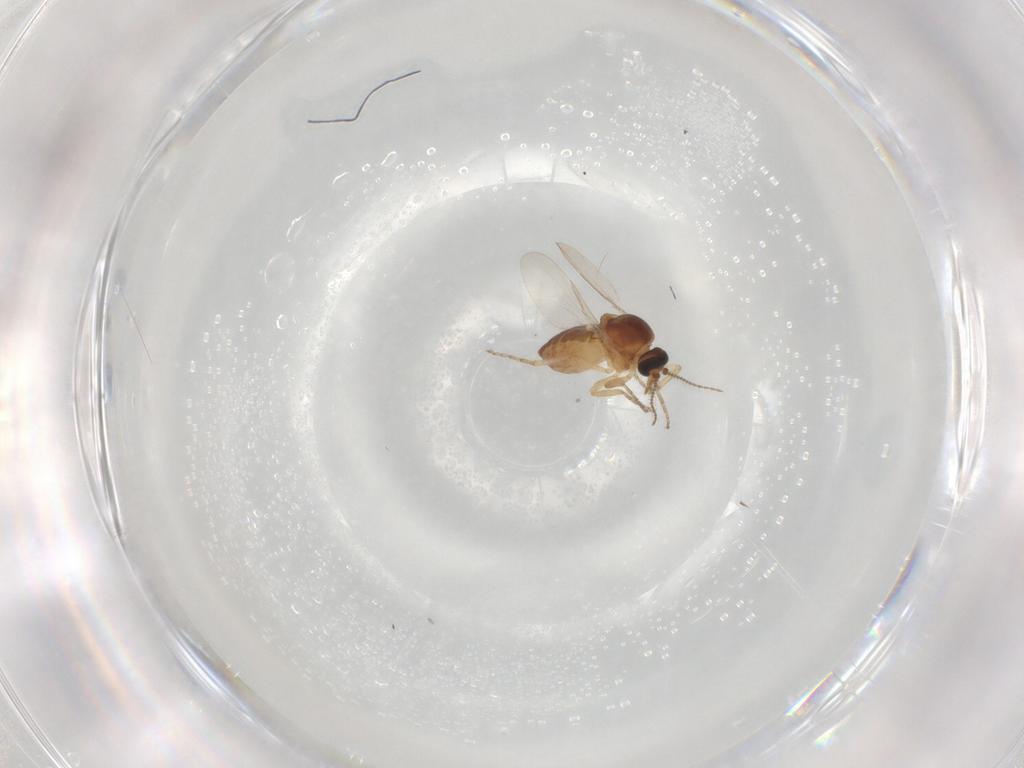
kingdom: Animalia
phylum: Arthropoda
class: Insecta
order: Diptera
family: Ceratopogonidae
